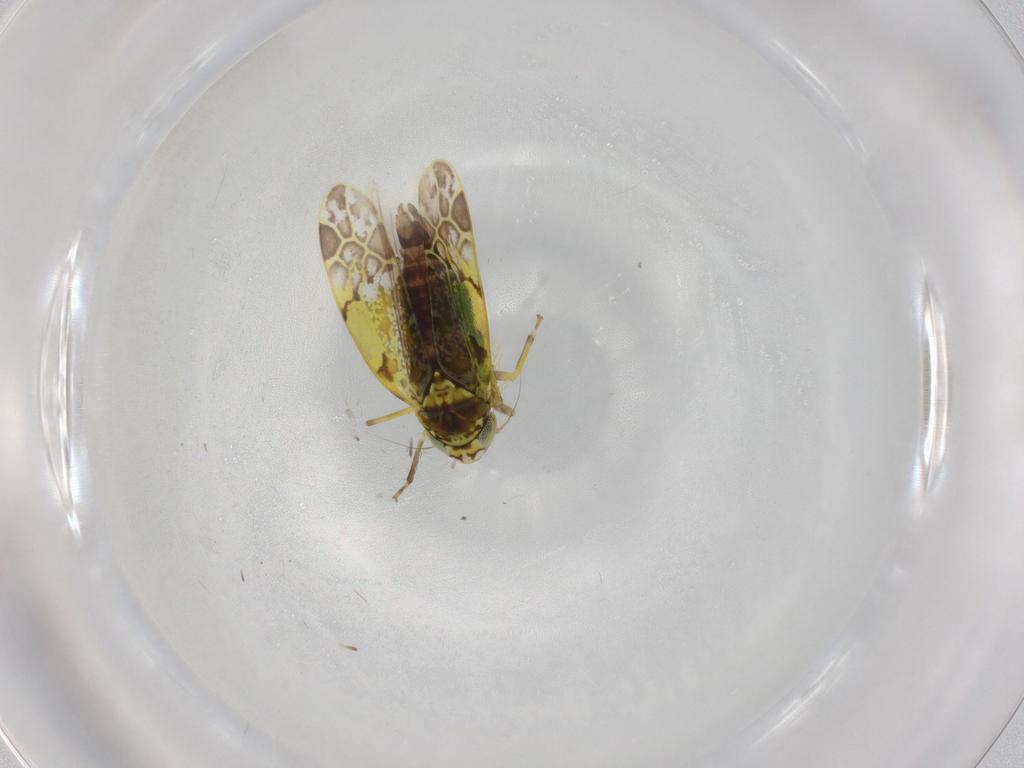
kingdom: Animalia
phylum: Arthropoda
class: Insecta
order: Hemiptera
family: Cicadellidae
